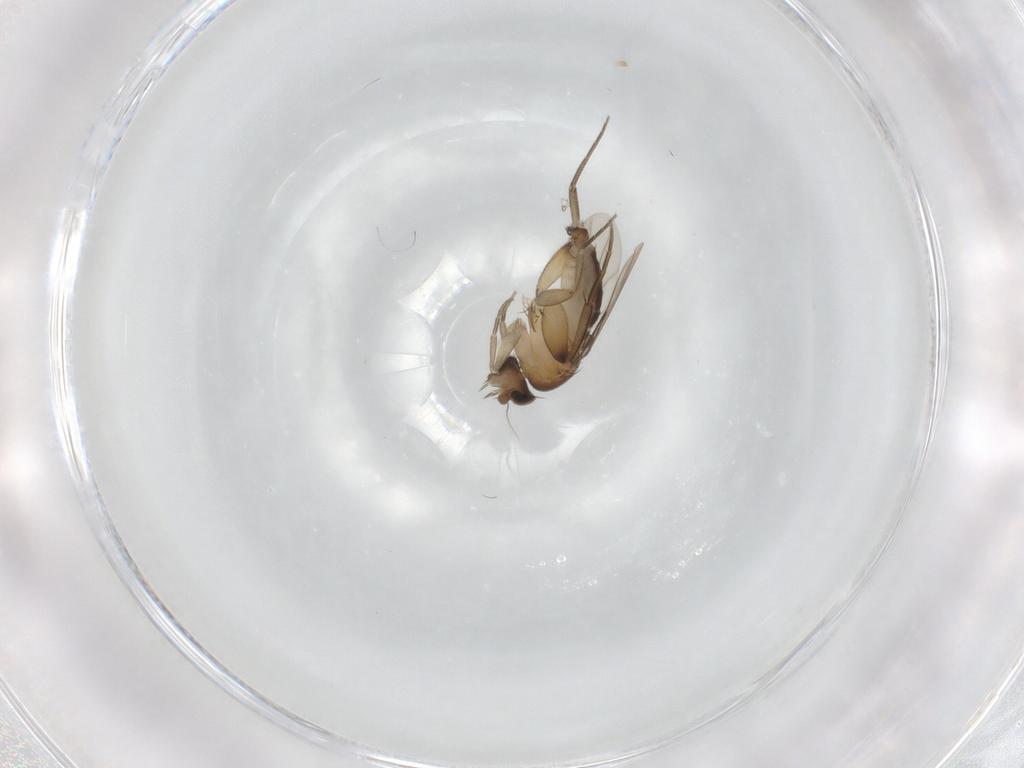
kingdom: Animalia
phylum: Arthropoda
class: Insecta
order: Diptera
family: Phoridae
